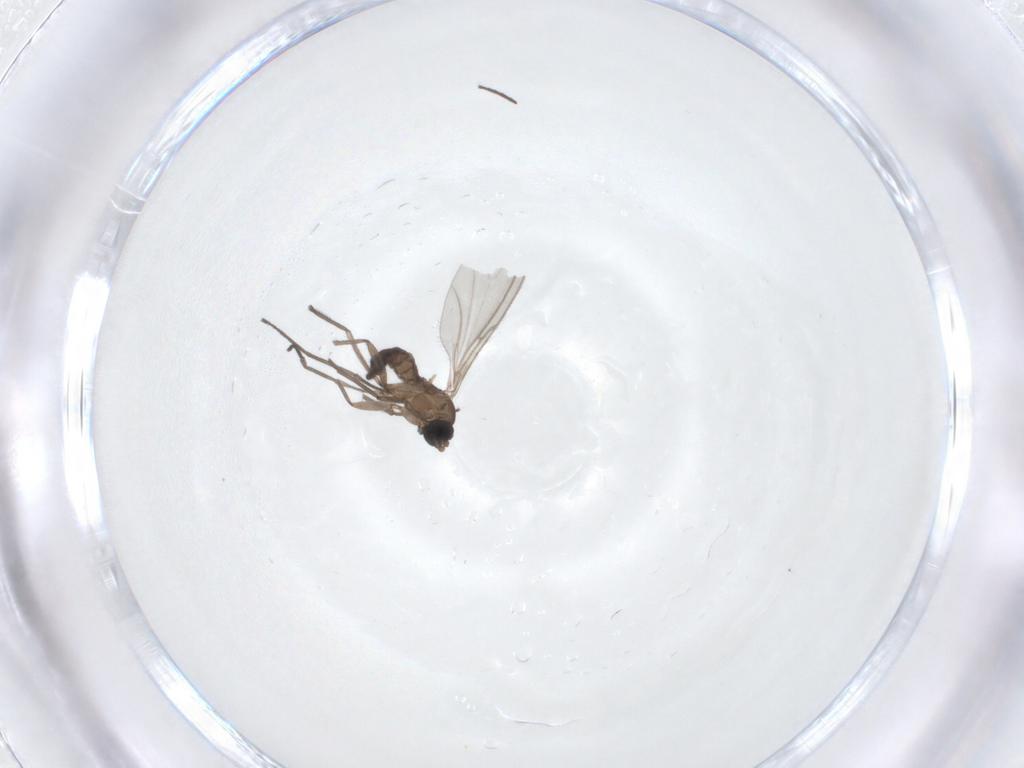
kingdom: Animalia
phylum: Arthropoda
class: Insecta
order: Diptera
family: Sciaridae
